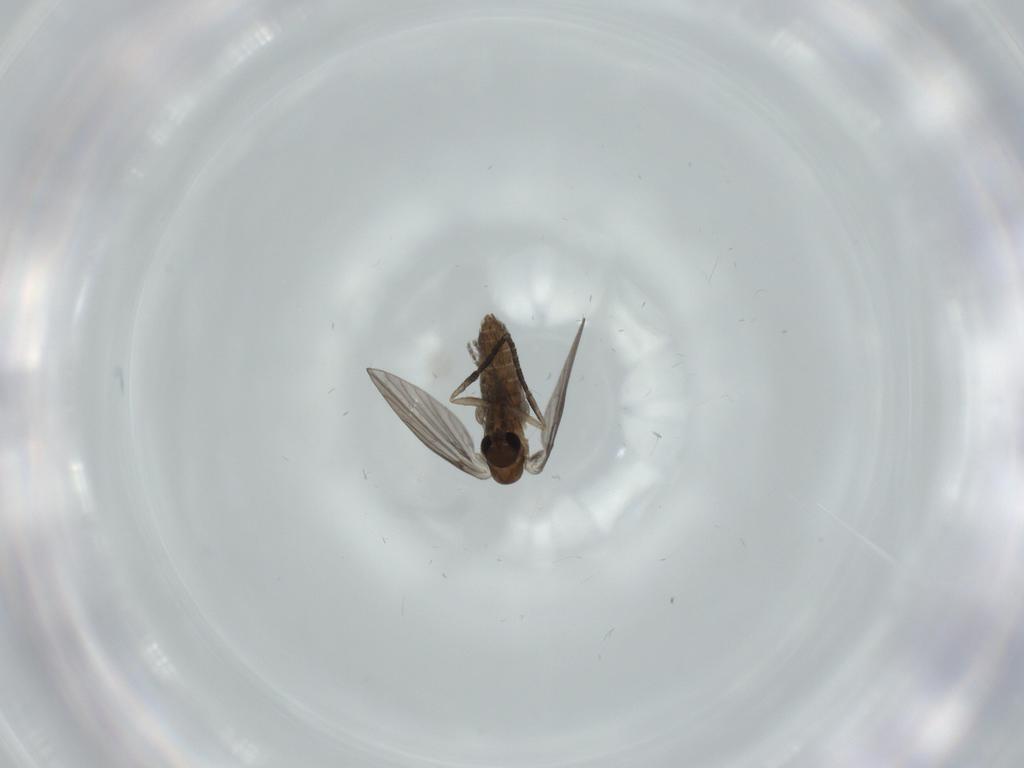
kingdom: Animalia
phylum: Arthropoda
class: Insecta
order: Diptera
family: Psychodidae
